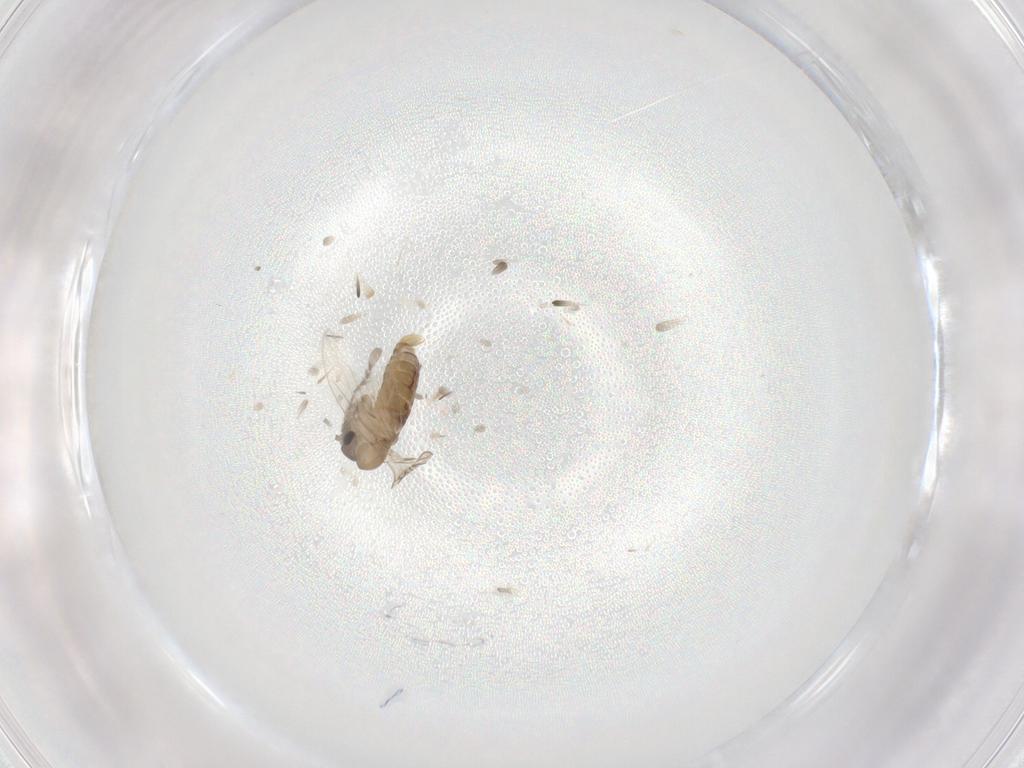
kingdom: Animalia
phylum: Arthropoda
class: Insecta
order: Diptera
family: Psychodidae
